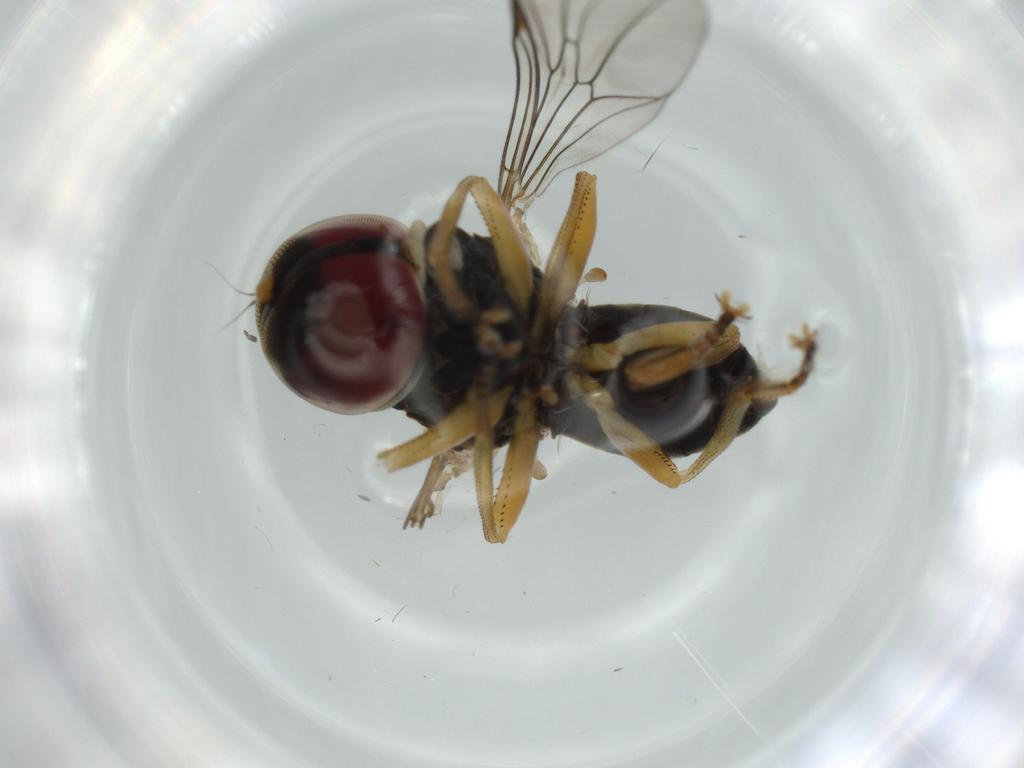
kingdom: Animalia
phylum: Arthropoda
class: Insecta
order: Diptera
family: Pipunculidae
